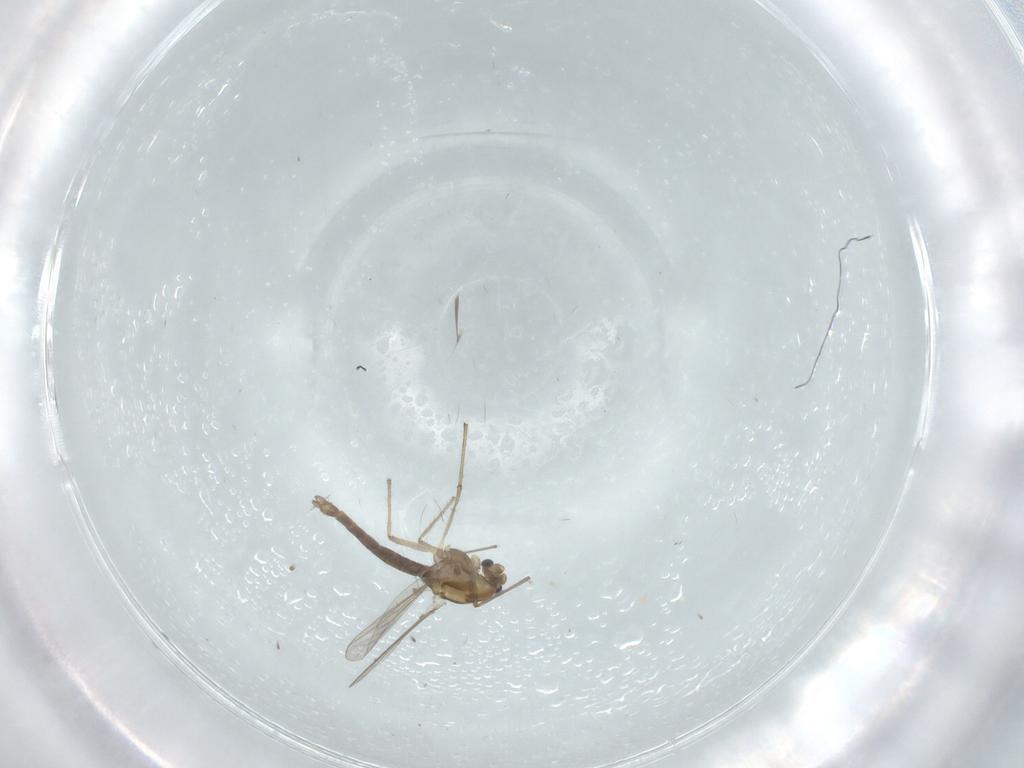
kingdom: Animalia
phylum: Arthropoda
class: Insecta
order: Diptera
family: Chironomidae
